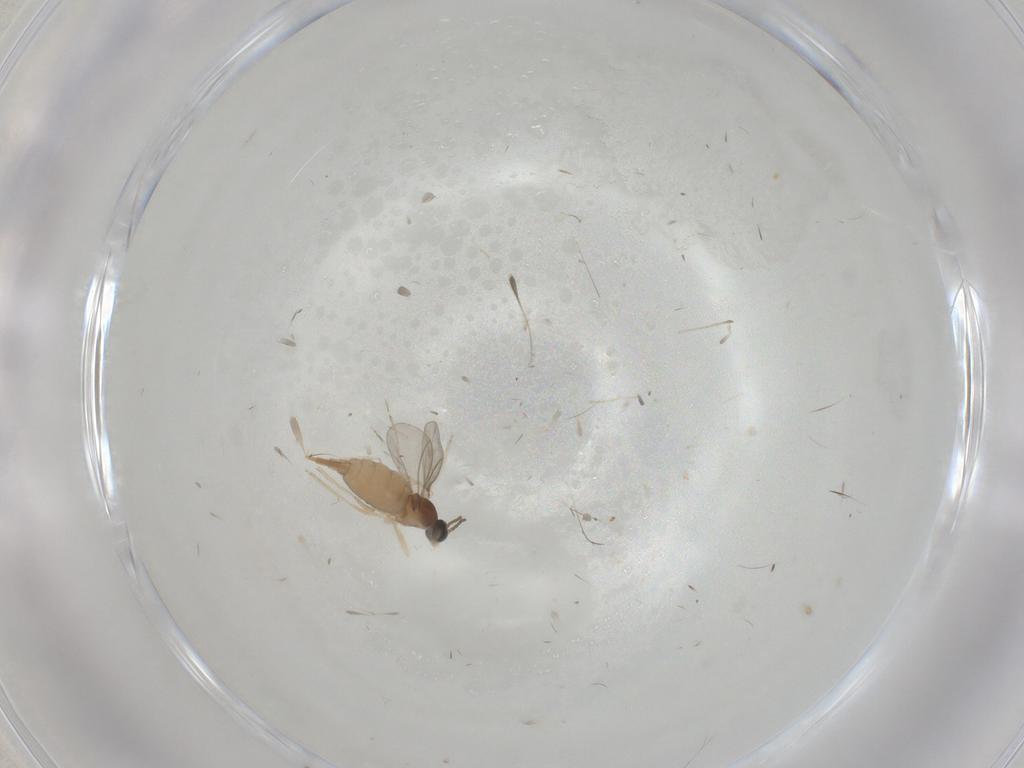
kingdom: Animalia
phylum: Arthropoda
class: Insecta
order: Diptera
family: Cecidomyiidae
